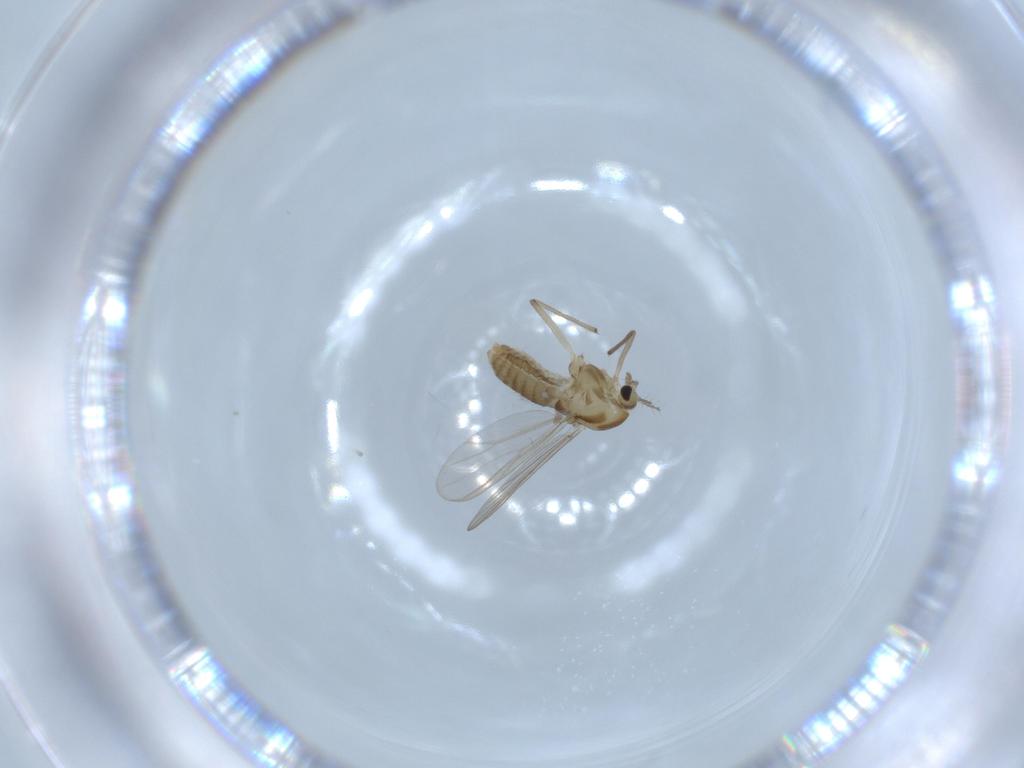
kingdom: Animalia
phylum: Arthropoda
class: Insecta
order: Diptera
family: Chironomidae
